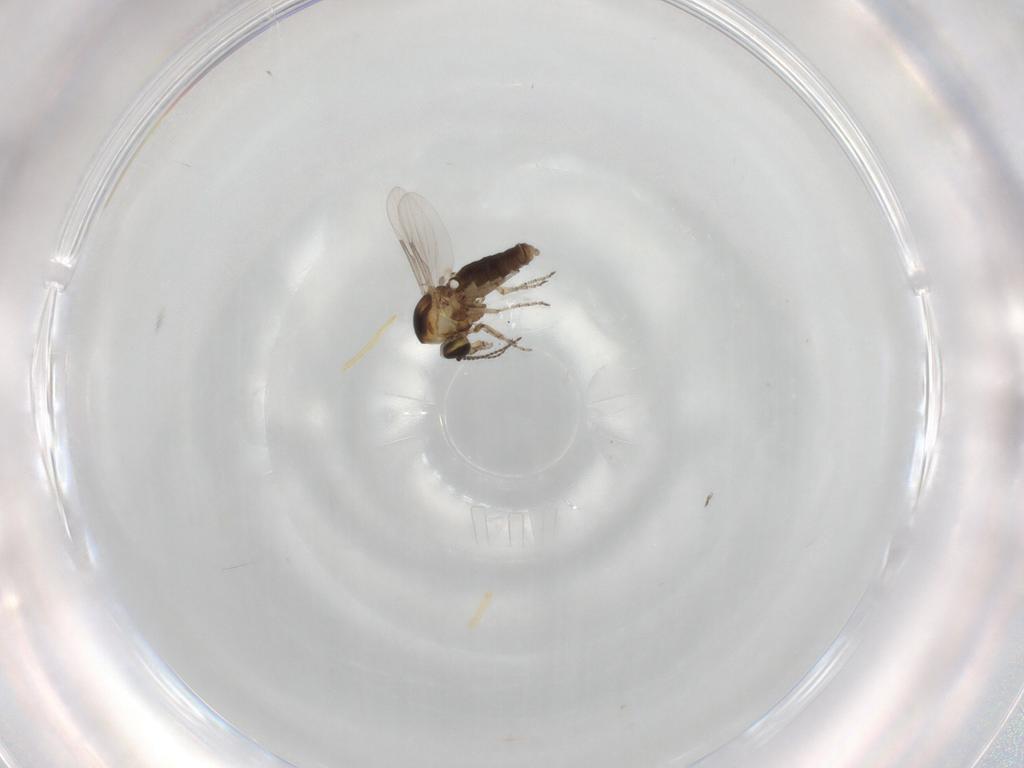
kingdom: Animalia
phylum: Arthropoda
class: Insecta
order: Diptera
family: Ceratopogonidae
